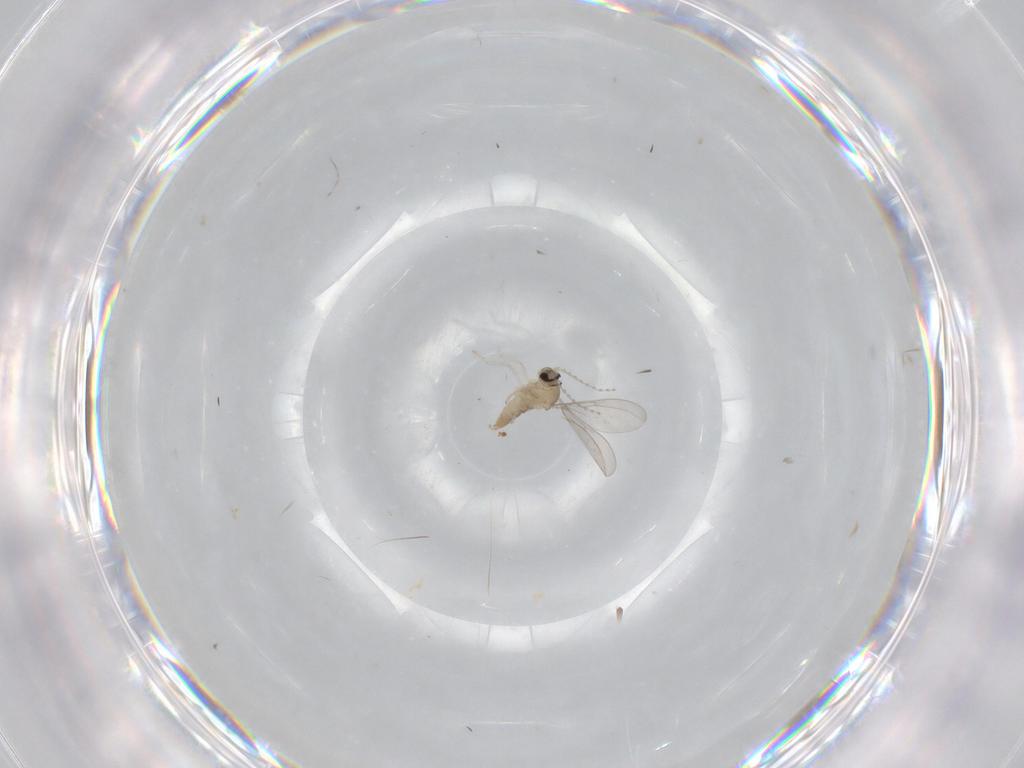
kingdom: Animalia
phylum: Arthropoda
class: Insecta
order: Diptera
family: Cecidomyiidae
